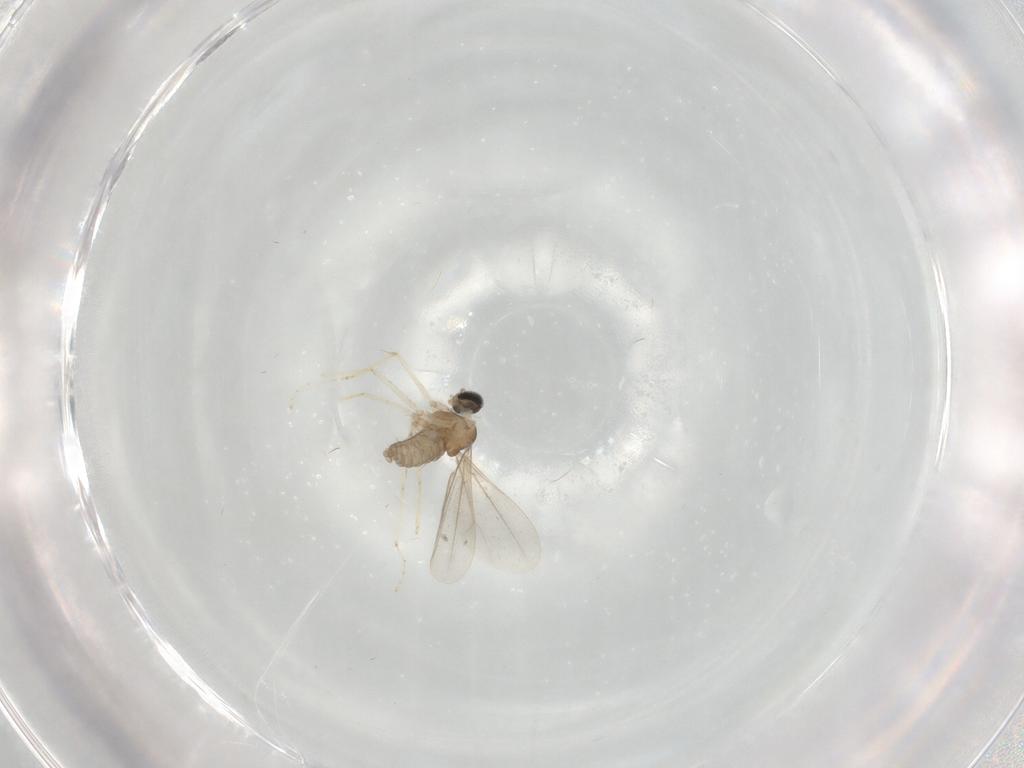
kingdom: Animalia
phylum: Arthropoda
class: Insecta
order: Diptera
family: Cecidomyiidae
